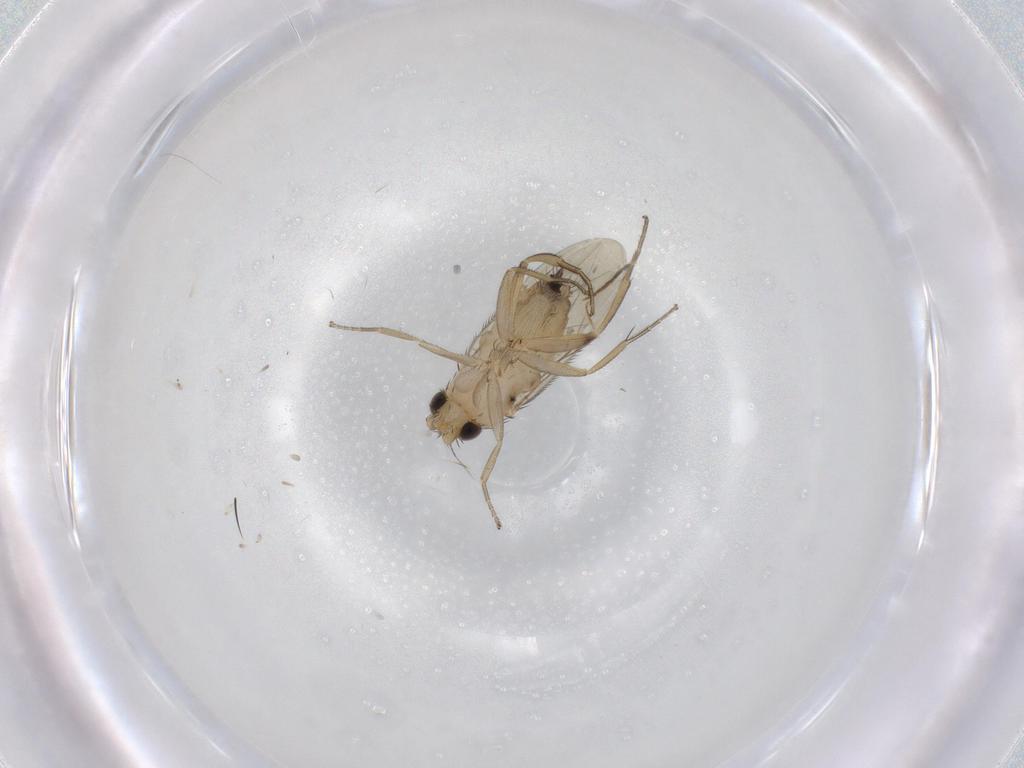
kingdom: Animalia
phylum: Arthropoda
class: Insecta
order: Diptera
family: Phoridae
